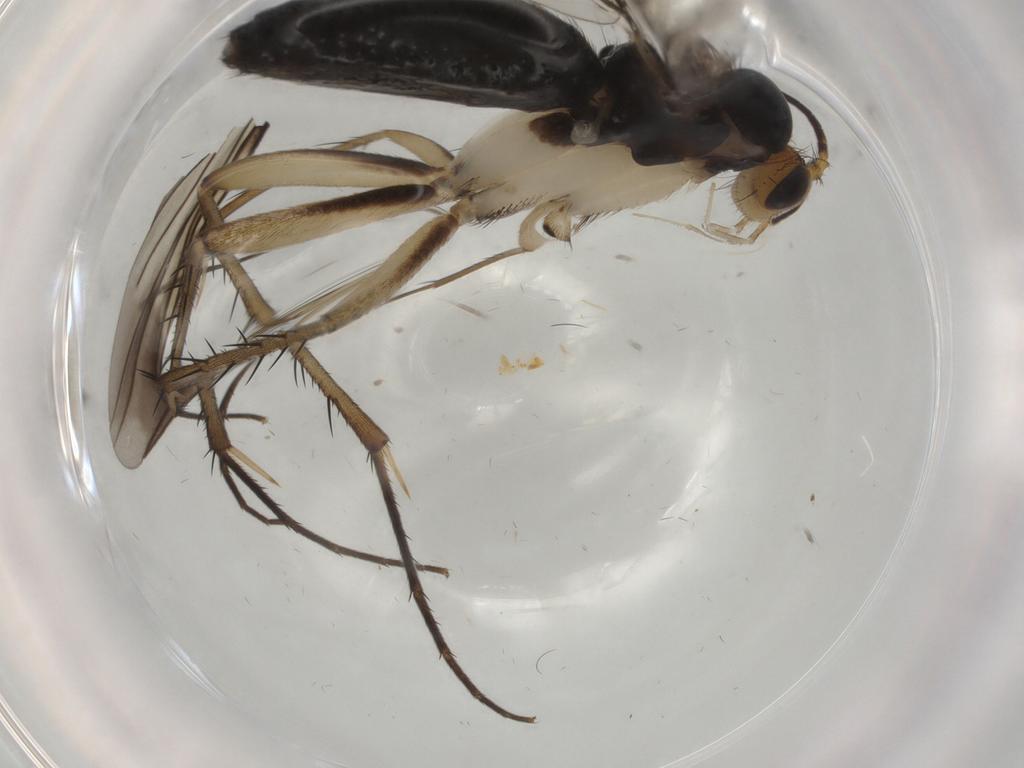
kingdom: Animalia
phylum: Arthropoda
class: Insecta
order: Diptera
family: Mycetophilidae
